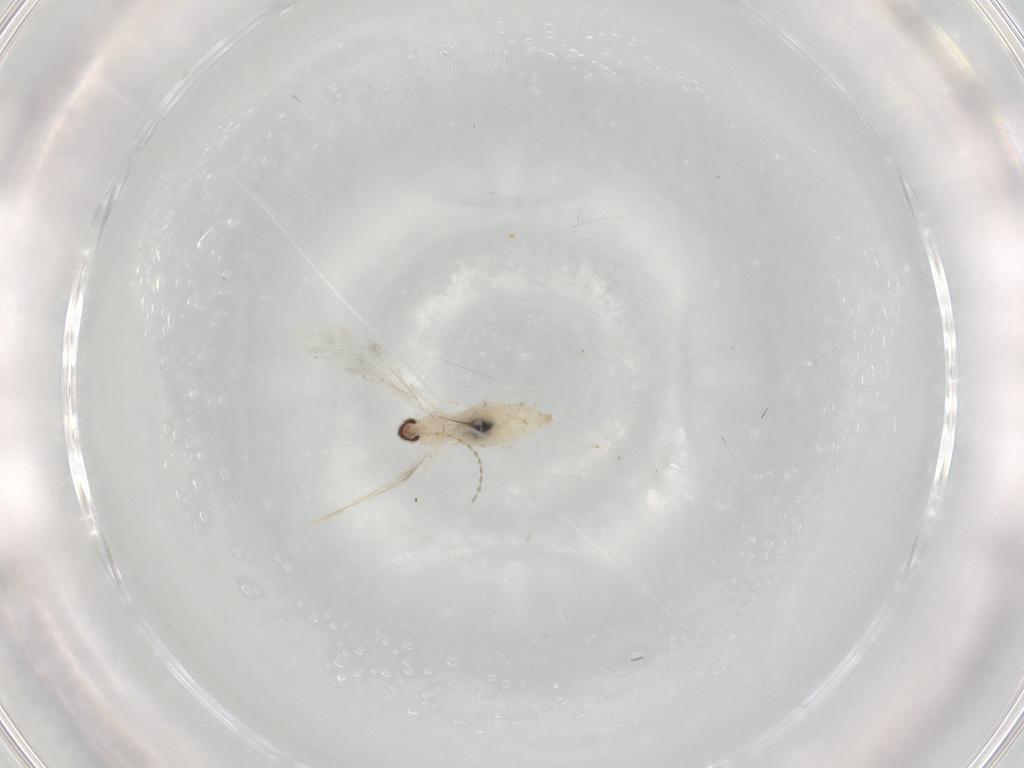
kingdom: Animalia
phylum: Arthropoda
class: Insecta
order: Diptera
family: Cecidomyiidae
